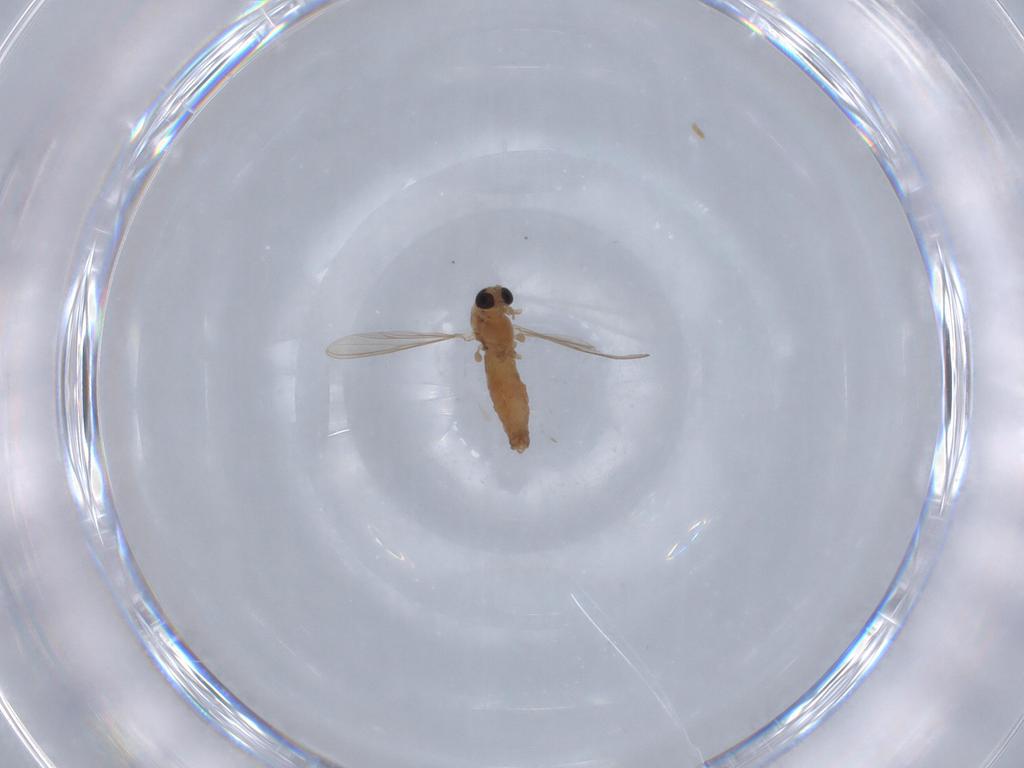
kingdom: Animalia
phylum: Arthropoda
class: Insecta
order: Diptera
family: Chironomidae
